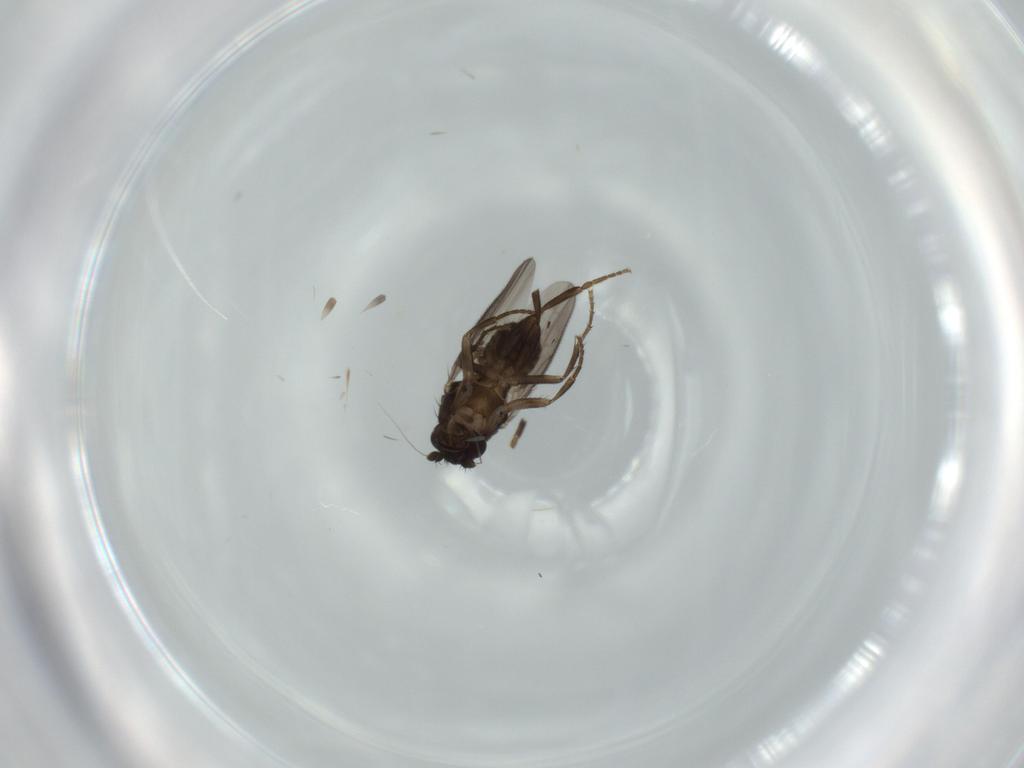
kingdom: Animalia
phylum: Arthropoda
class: Insecta
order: Diptera
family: Sphaeroceridae
